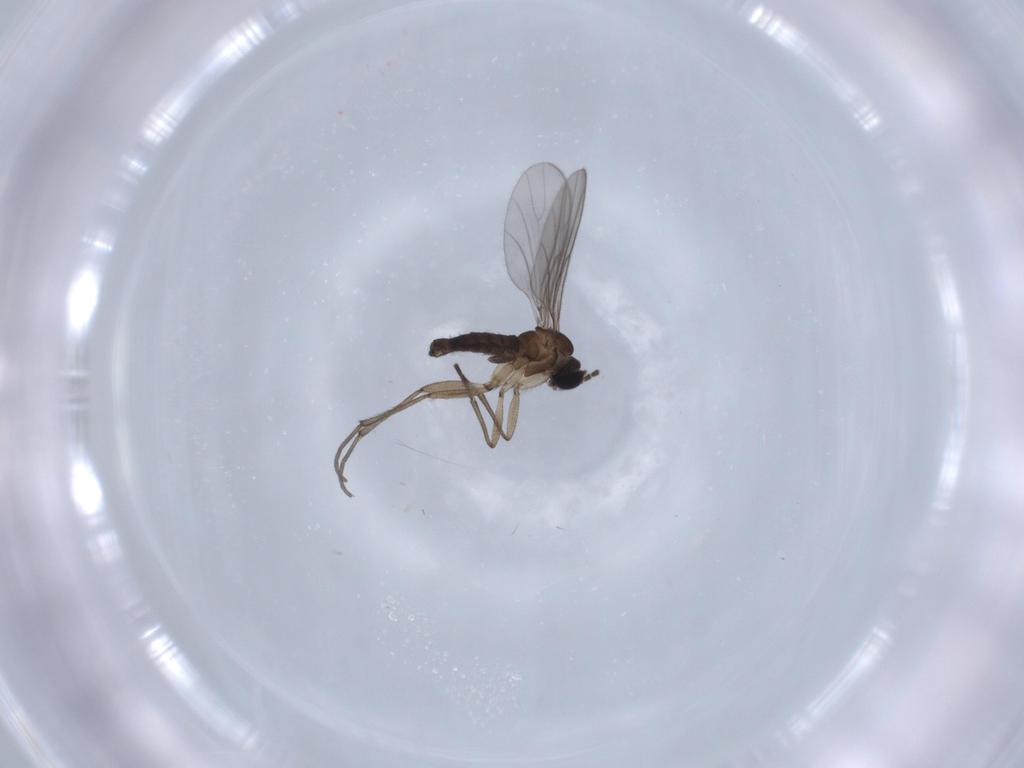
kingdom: Animalia
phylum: Arthropoda
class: Insecta
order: Diptera
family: Sciaridae
